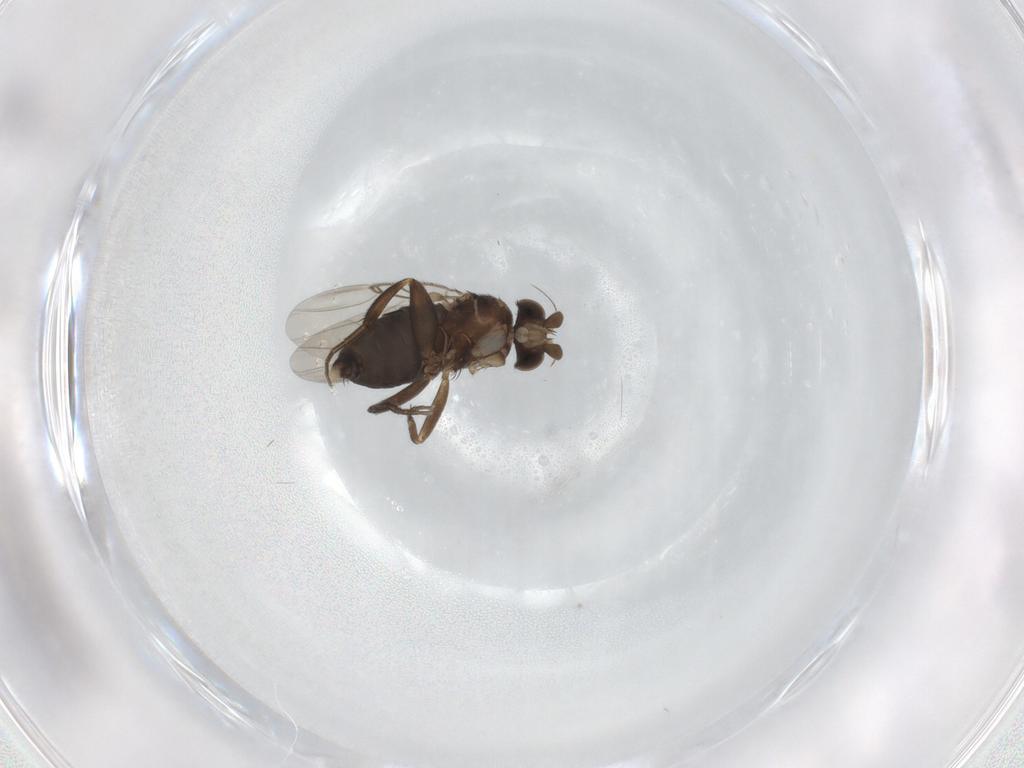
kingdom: Animalia
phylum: Arthropoda
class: Insecta
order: Diptera
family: Phoridae
